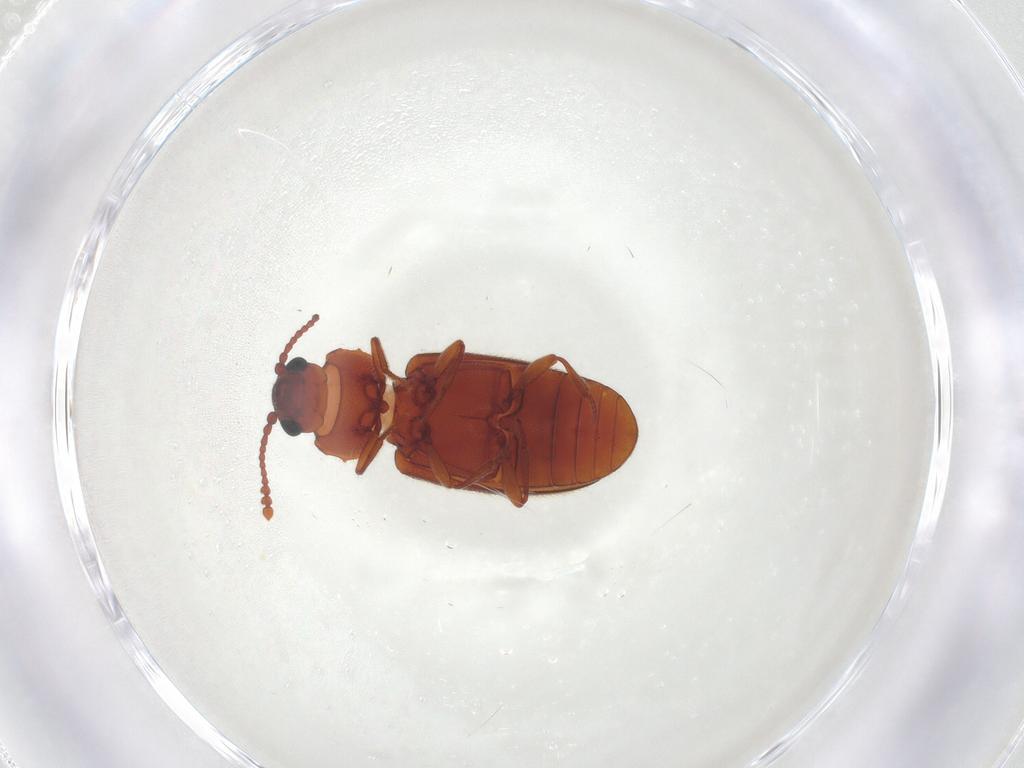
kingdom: Animalia
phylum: Arthropoda
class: Insecta
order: Coleoptera
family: Cryptophagidae
